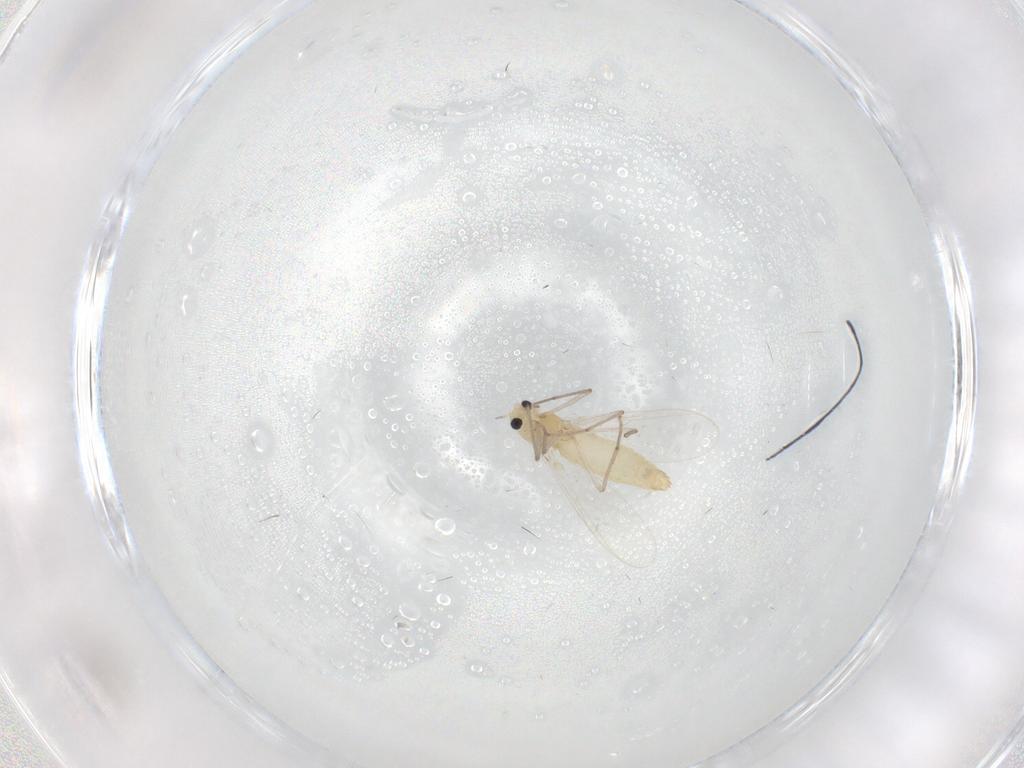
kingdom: Animalia
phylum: Arthropoda
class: Insecta
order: Diptera
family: Chironomidae
